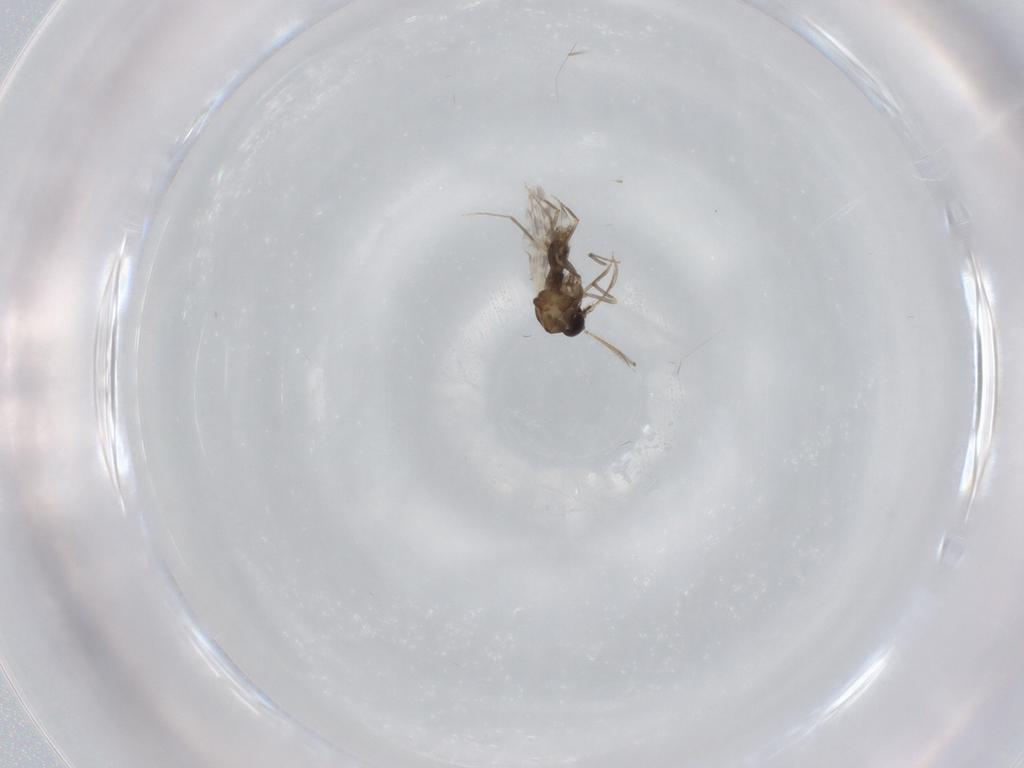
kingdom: Animalia
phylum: Arthropoda
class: Insecta
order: Diptera
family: Ceratopogonidae
